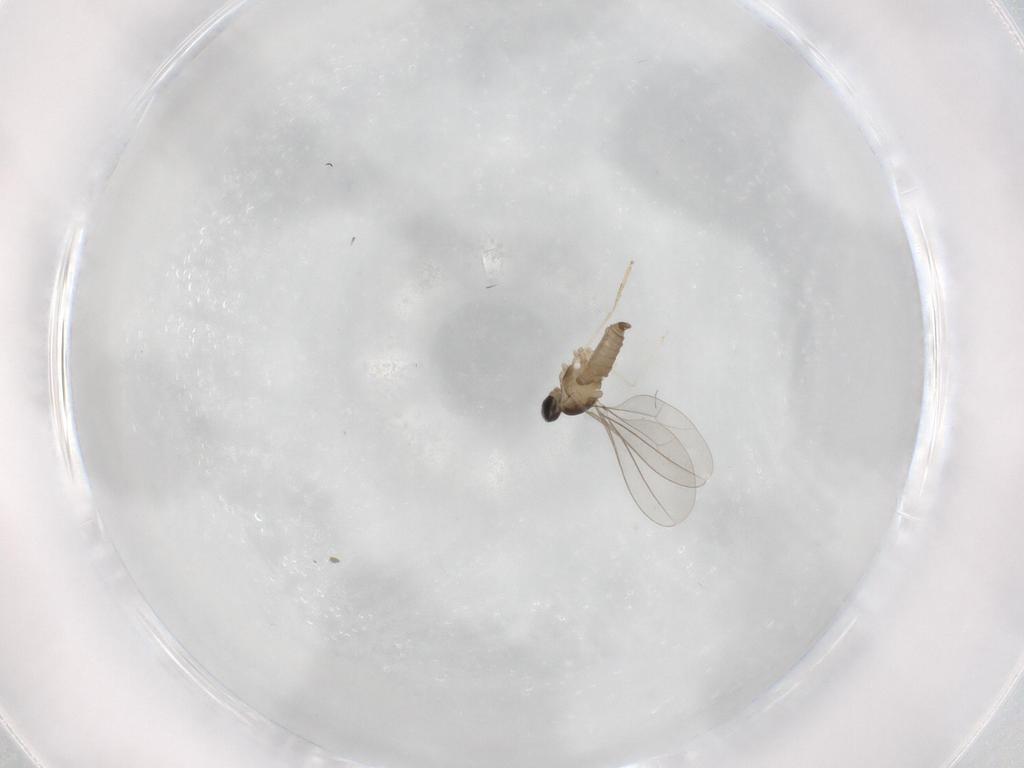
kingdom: Animalia
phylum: Arthropoda
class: Insecta
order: Diptera
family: Cecidomyiidae
